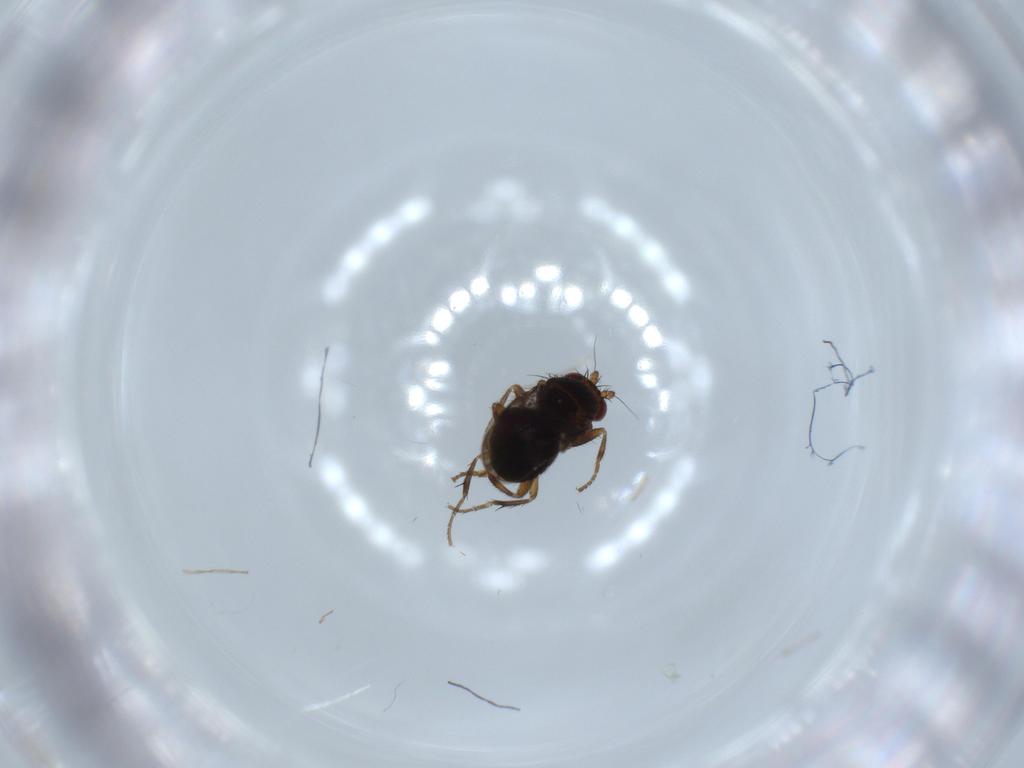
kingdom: Animalia
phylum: Arthropoda
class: Insecta
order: Diptera
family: Sphaeroceridae
